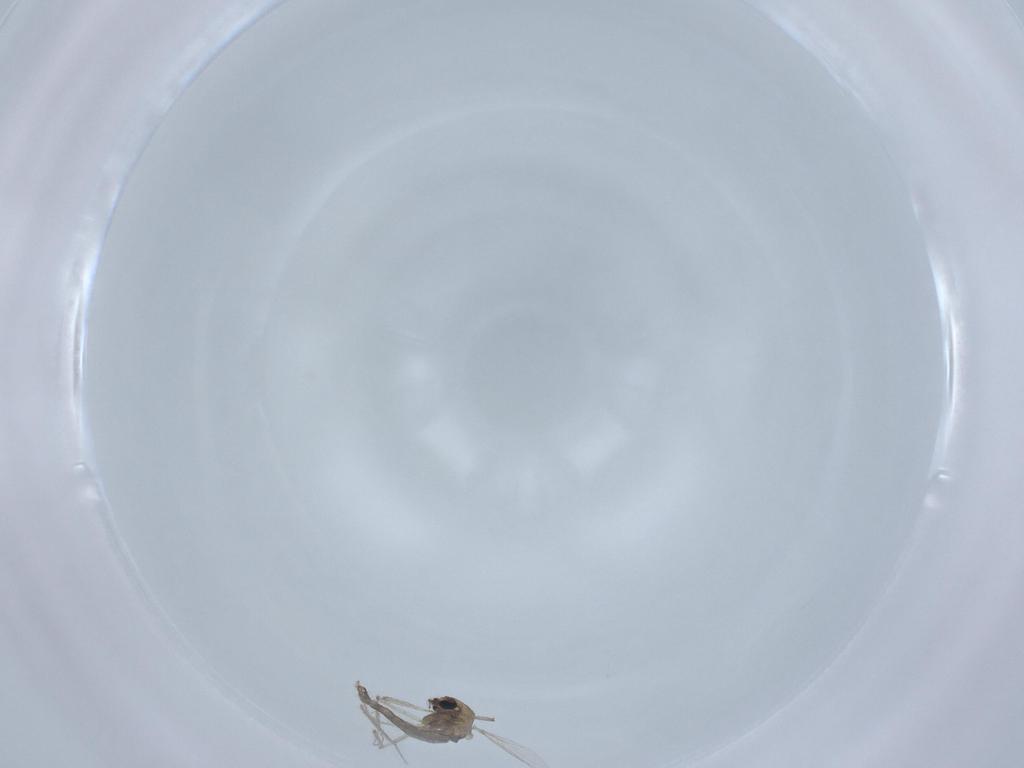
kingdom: Animalia
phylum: Arthropoda
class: Insecta
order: Diptera
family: Chironomidae
